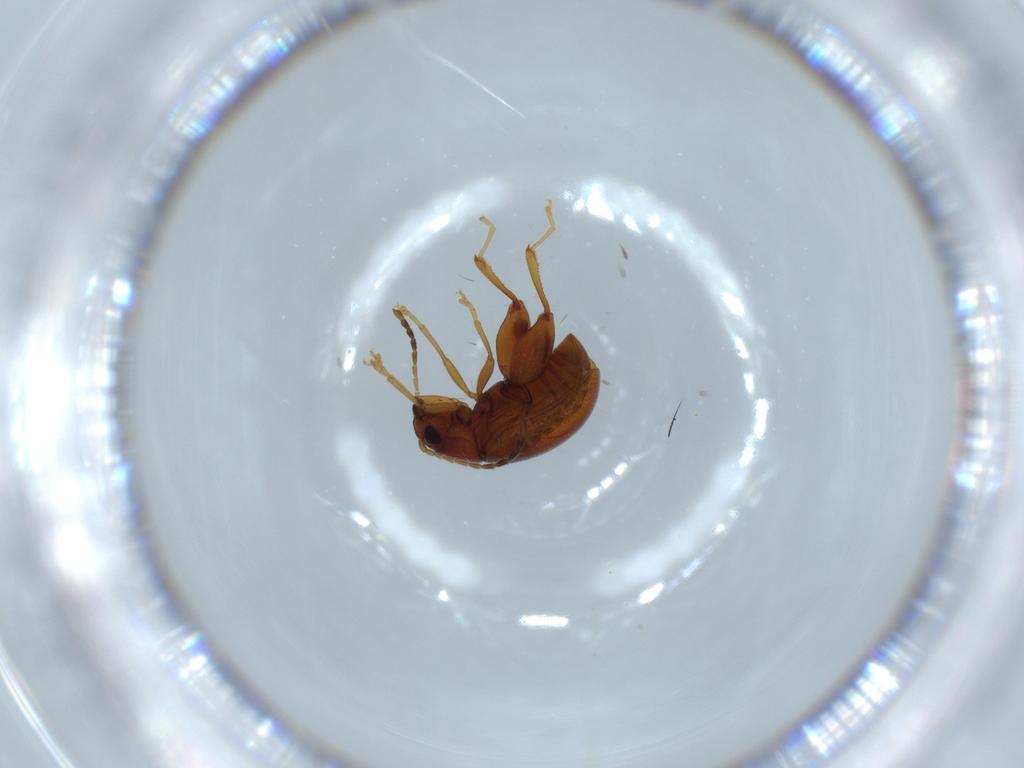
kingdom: Animalia
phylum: Arthropoda
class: Insecta
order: Coleoptera
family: Chrysomelidae
